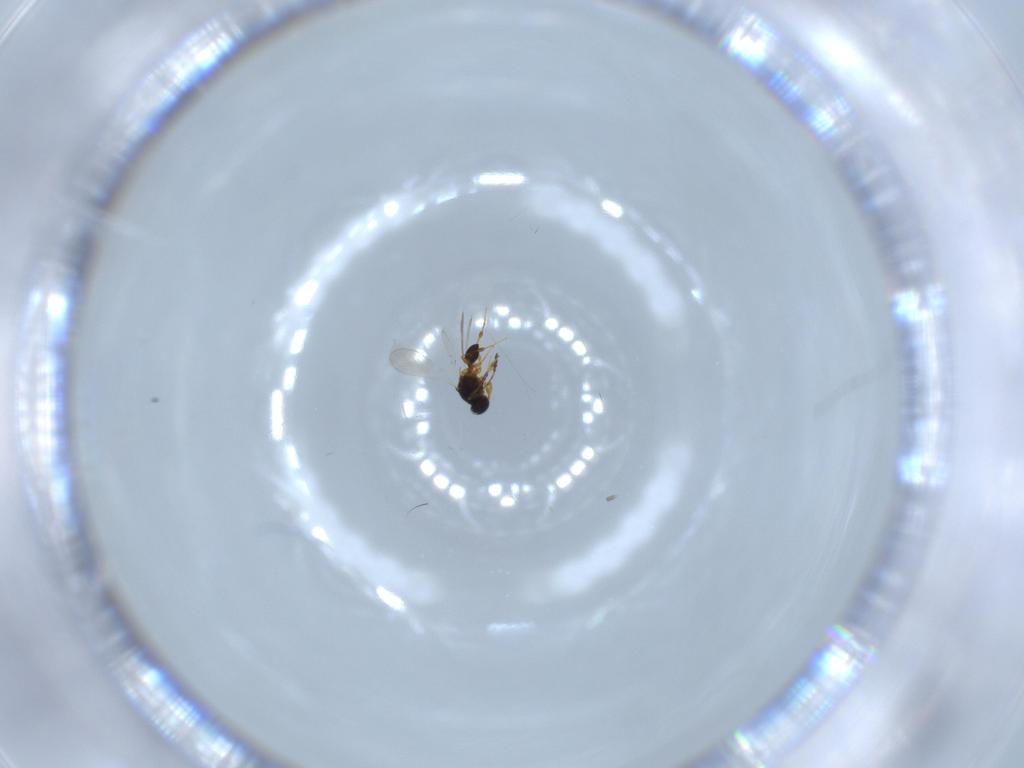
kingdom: Animalia
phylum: Arthropoda
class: Insecta
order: Hymenoptera
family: Platygastridae
